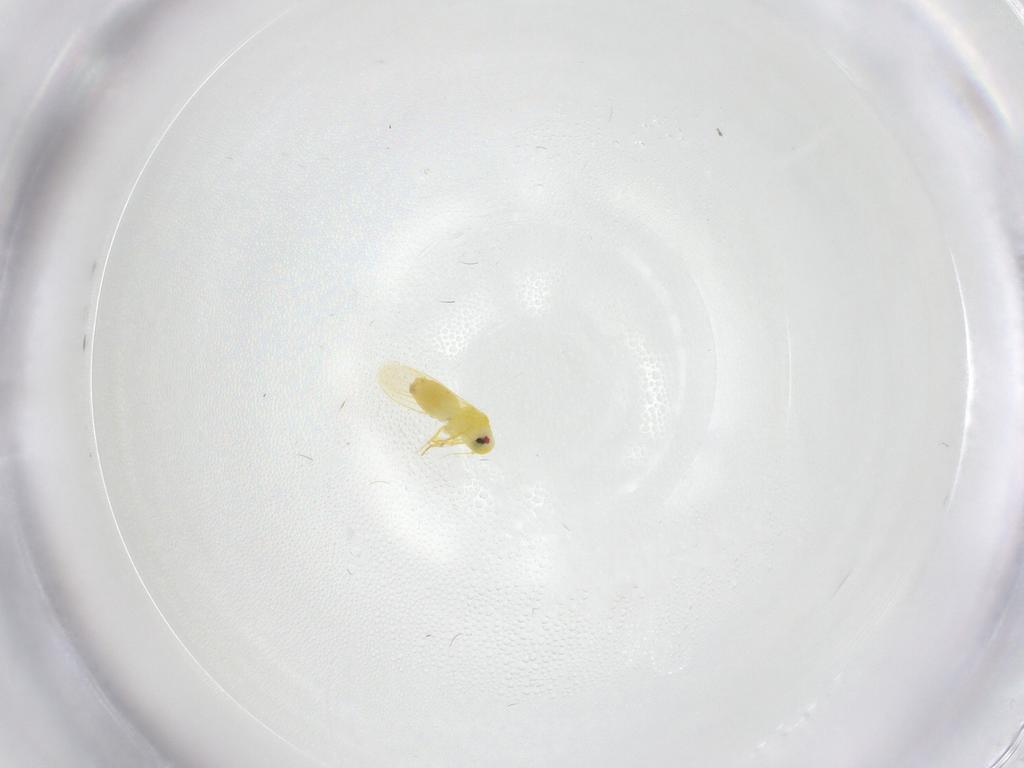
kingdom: Animalia
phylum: Arthropoda
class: Insecta
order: Hemiptera
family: Aleyrodidae
